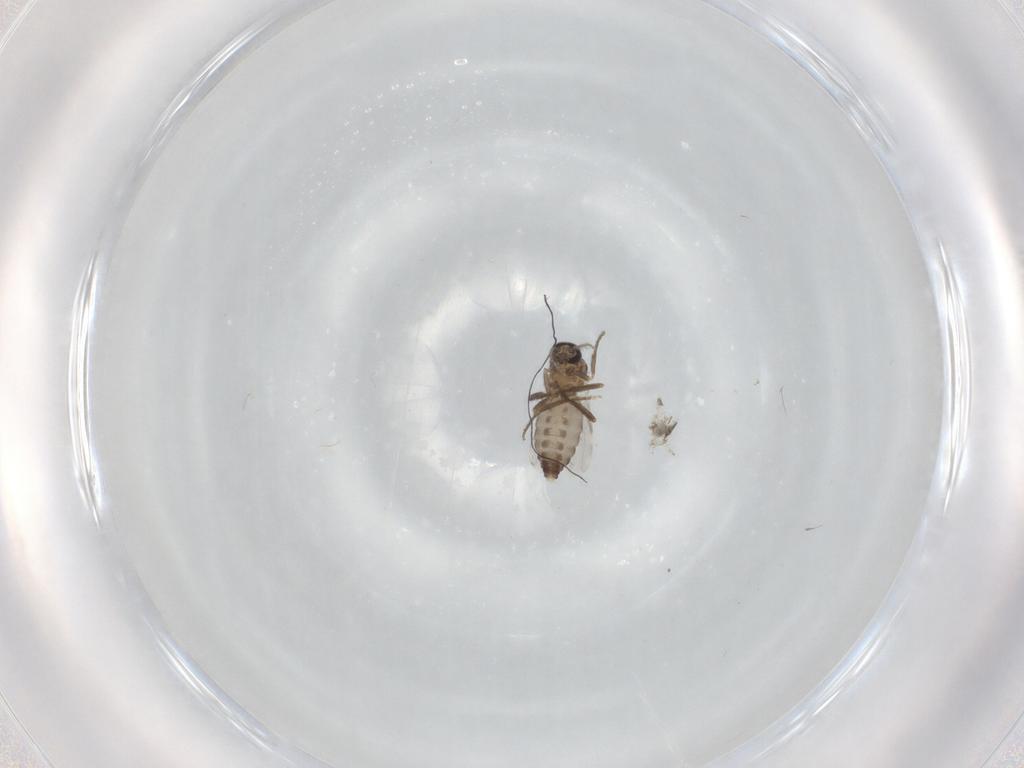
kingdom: Animalia
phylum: Arthropoda
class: Insecta
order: Diptera
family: Ceratopogonidae
